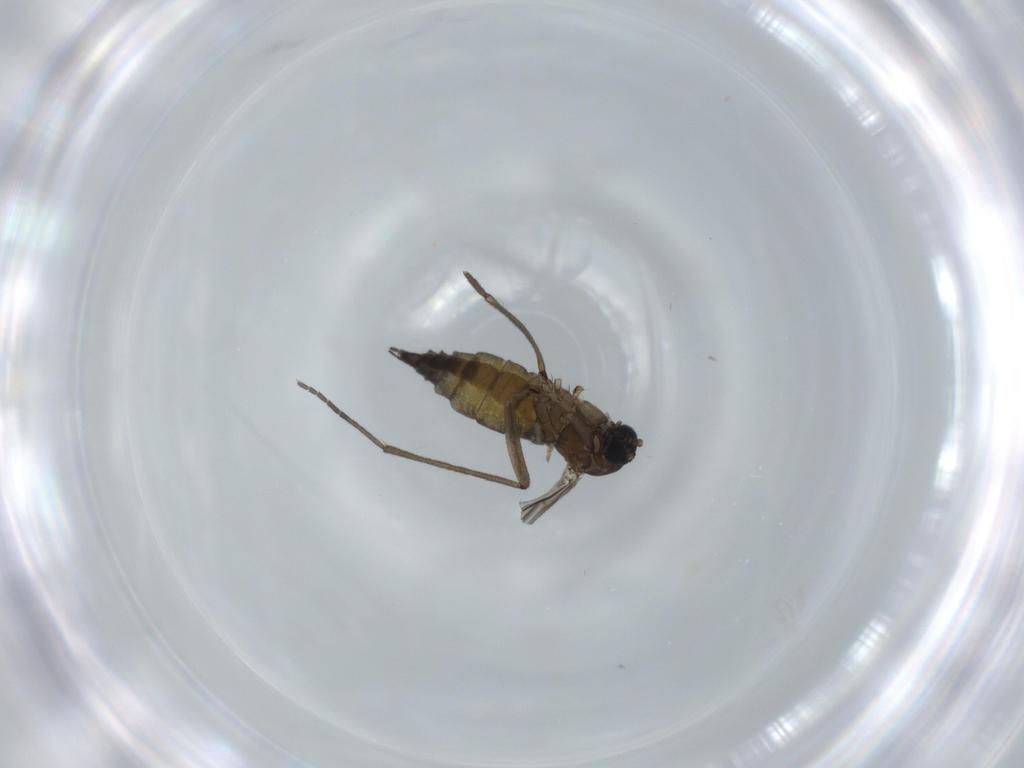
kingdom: Animalia
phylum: Arthropoda
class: Insecta
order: Diptera
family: Sciaridae
